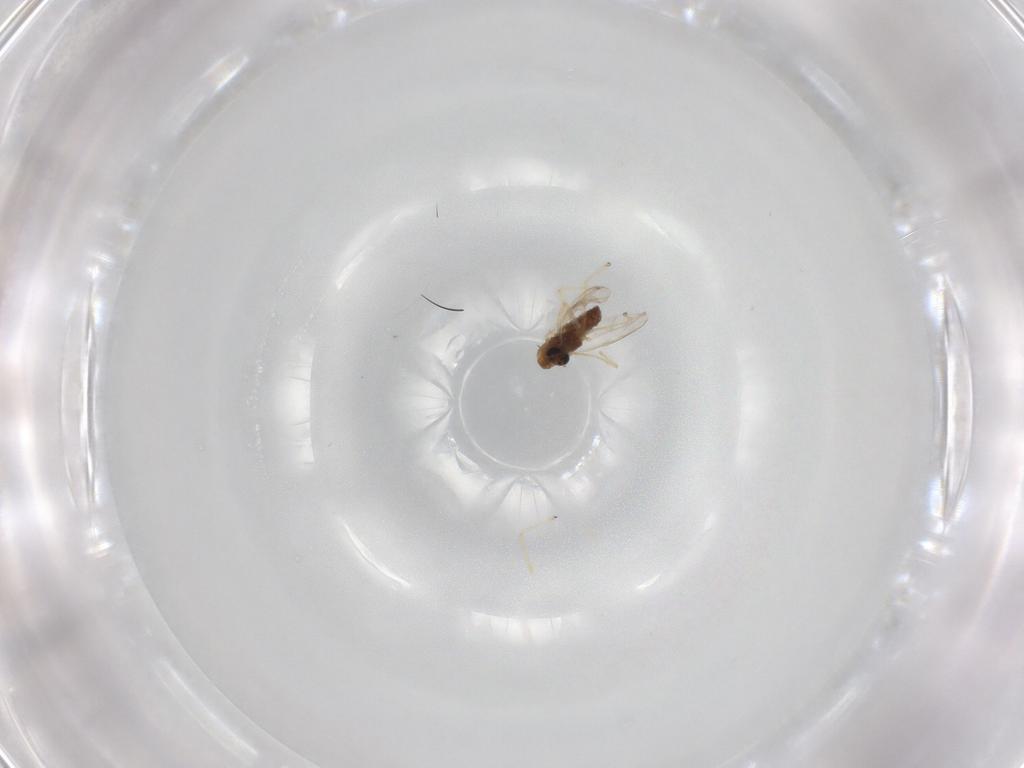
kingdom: Animalia
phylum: Arthropoda
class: Insecta
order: Diptera
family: Chironomidae
